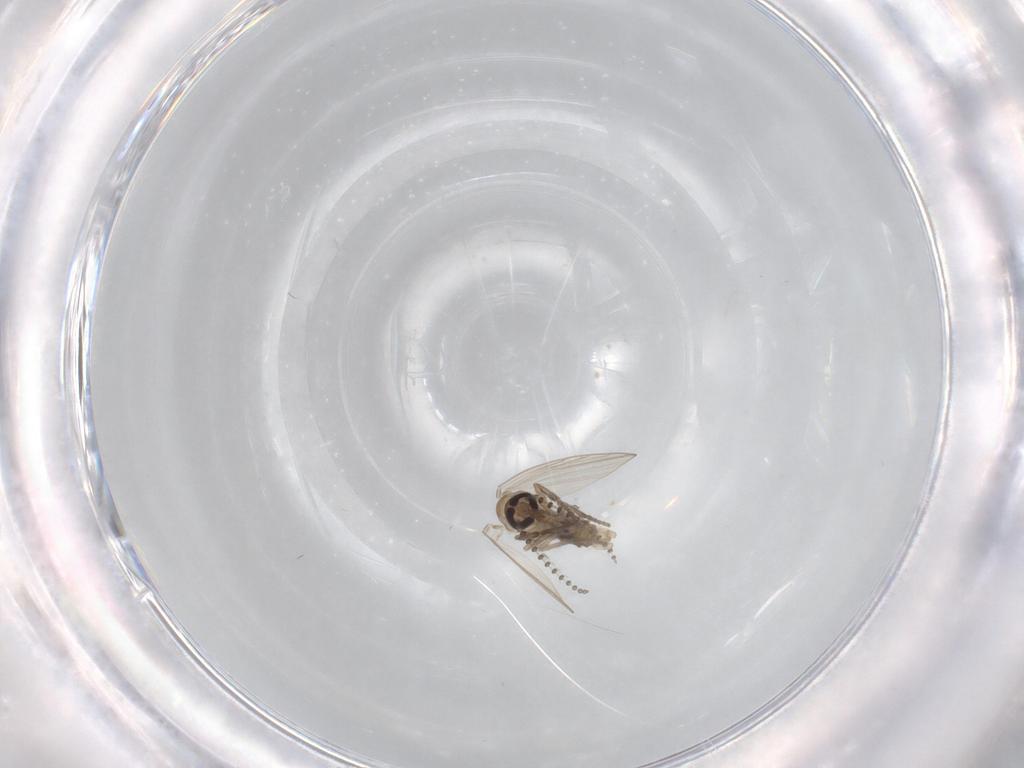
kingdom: Animalia
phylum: Arthropoda
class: Insecta
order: Diptera
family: Psychodidae
